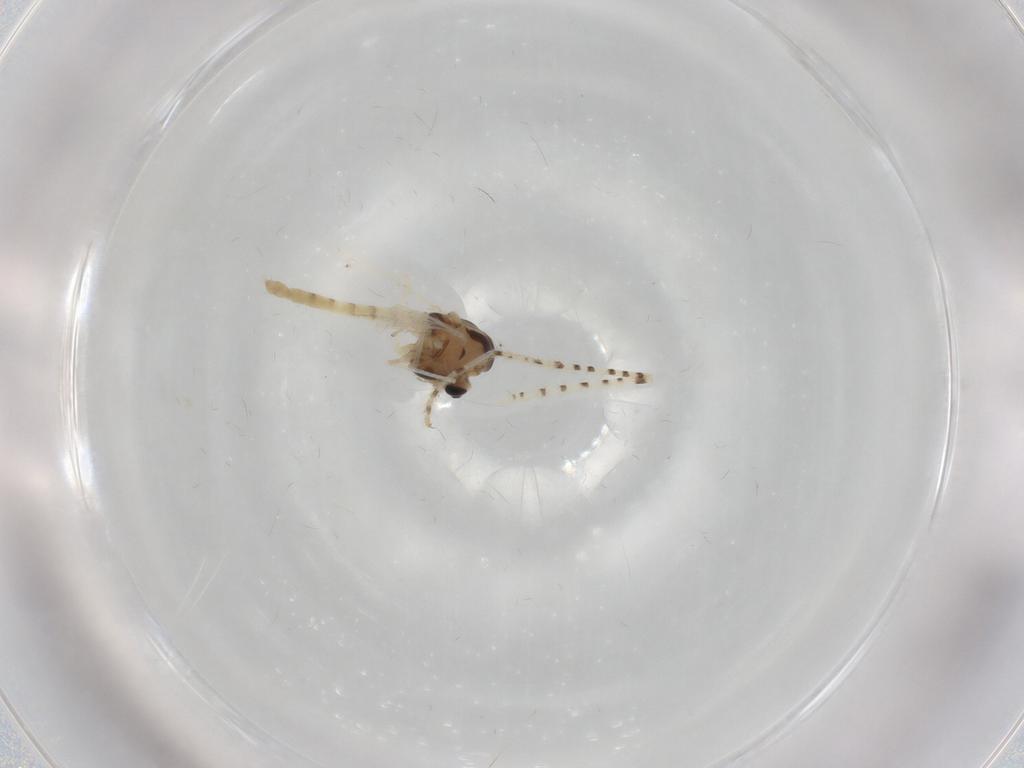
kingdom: Animalia
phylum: Arthropoda
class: Insecta
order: Diptera
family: Chironomidae
